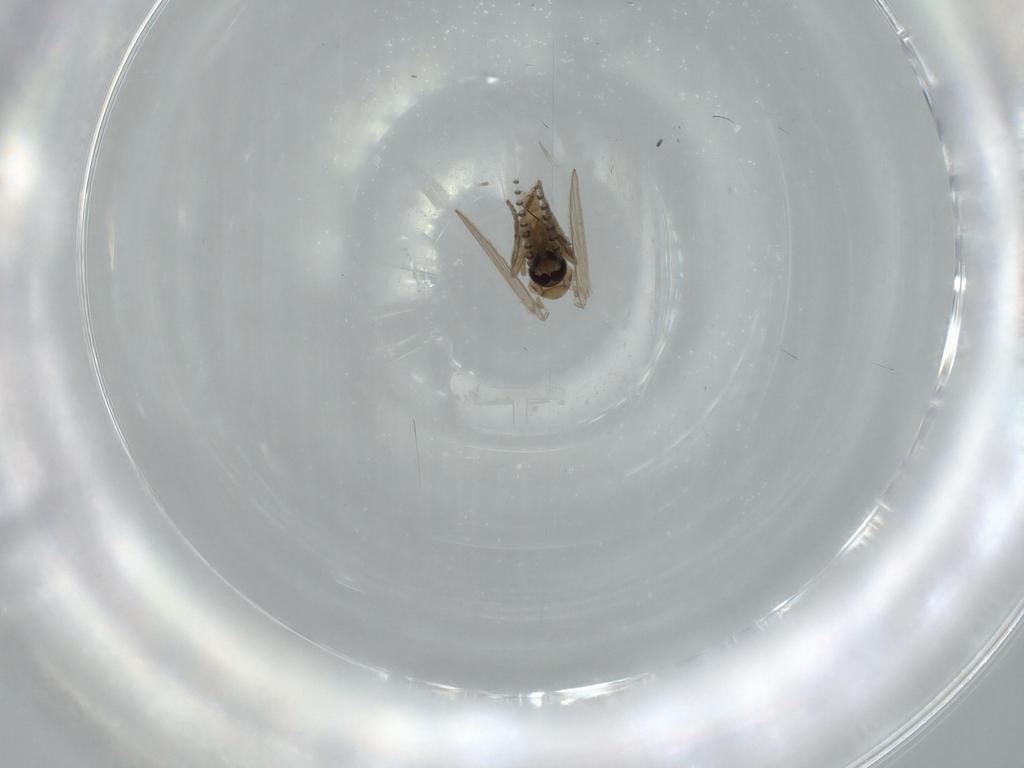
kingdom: Animalia
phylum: Arthropoda
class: Insecta
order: Diptera
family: Psychodidae
